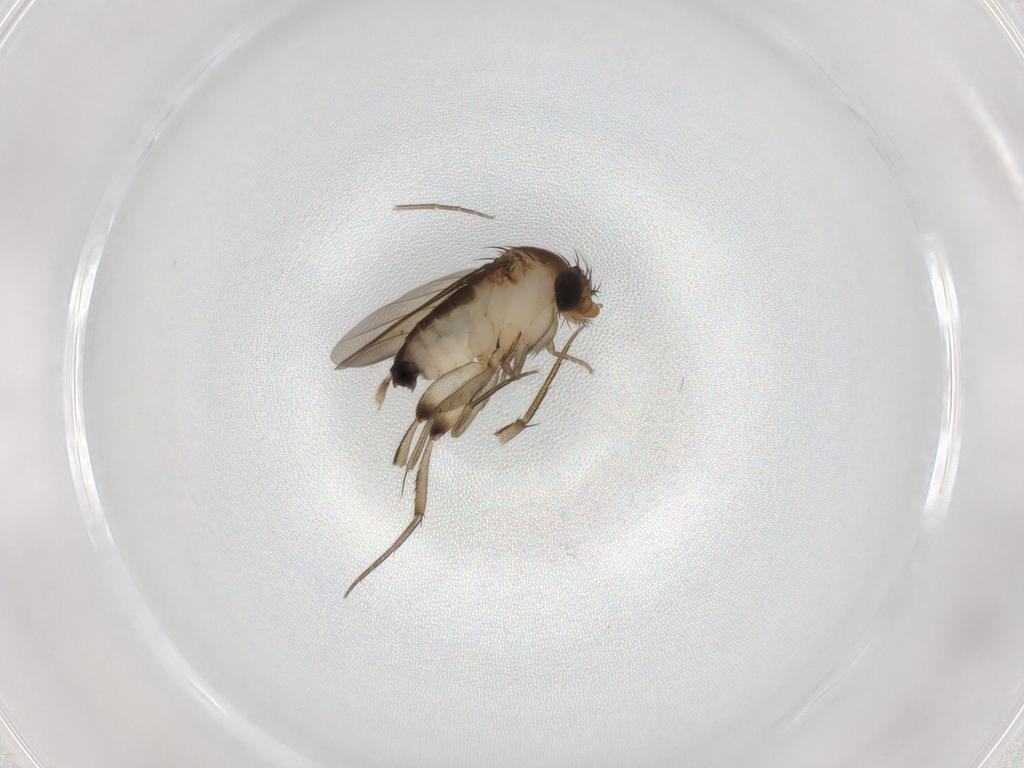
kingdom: Animalia
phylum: Arthropoda
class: Insecta
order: Diptera
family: Phoridae
